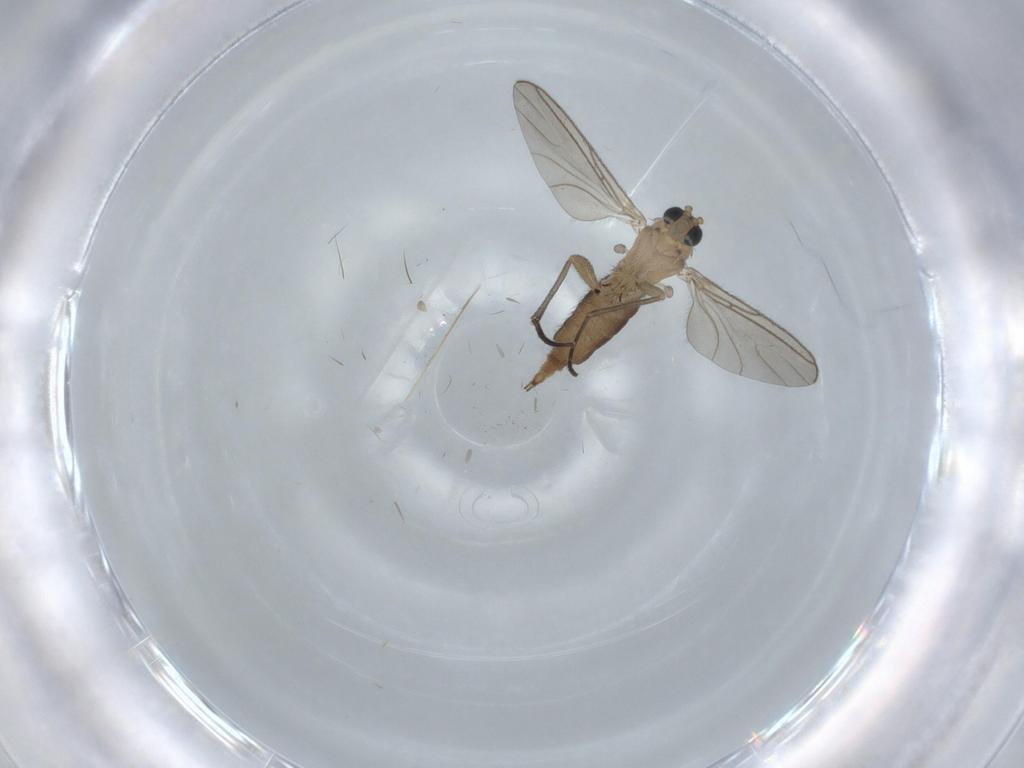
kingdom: Animalia
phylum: Arthropoda
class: Insecta
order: Diptera
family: Sciaridae
